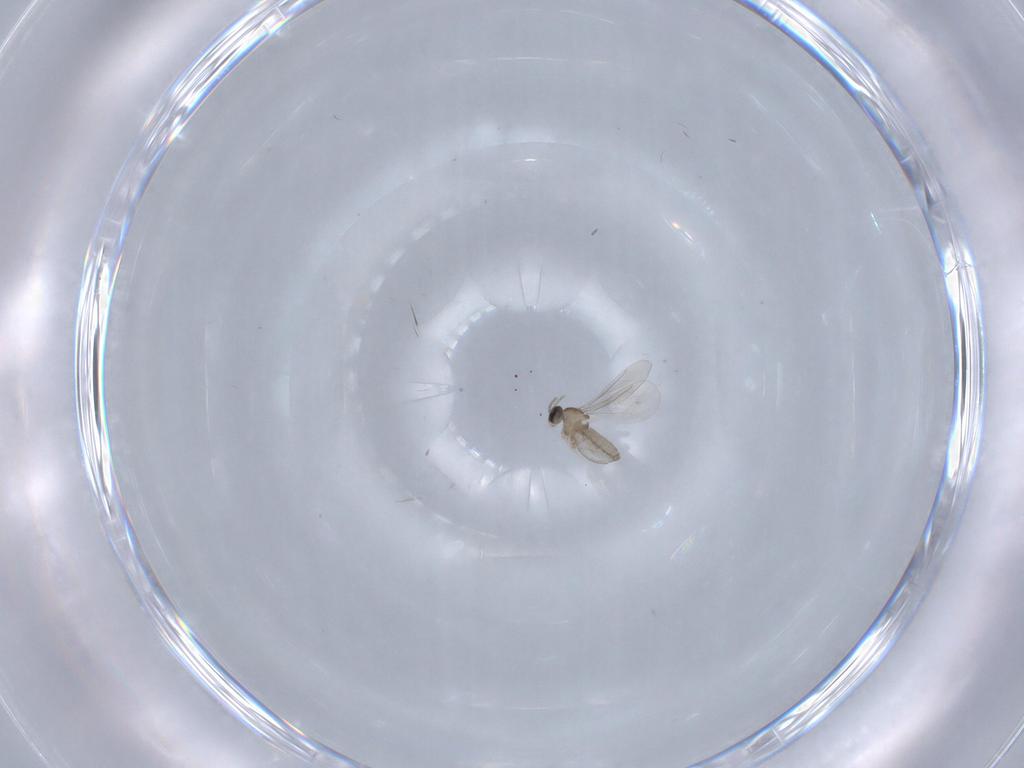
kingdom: Animalia
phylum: Arthropoda
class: Insecta
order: Diptera
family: Cecidomyiidae
